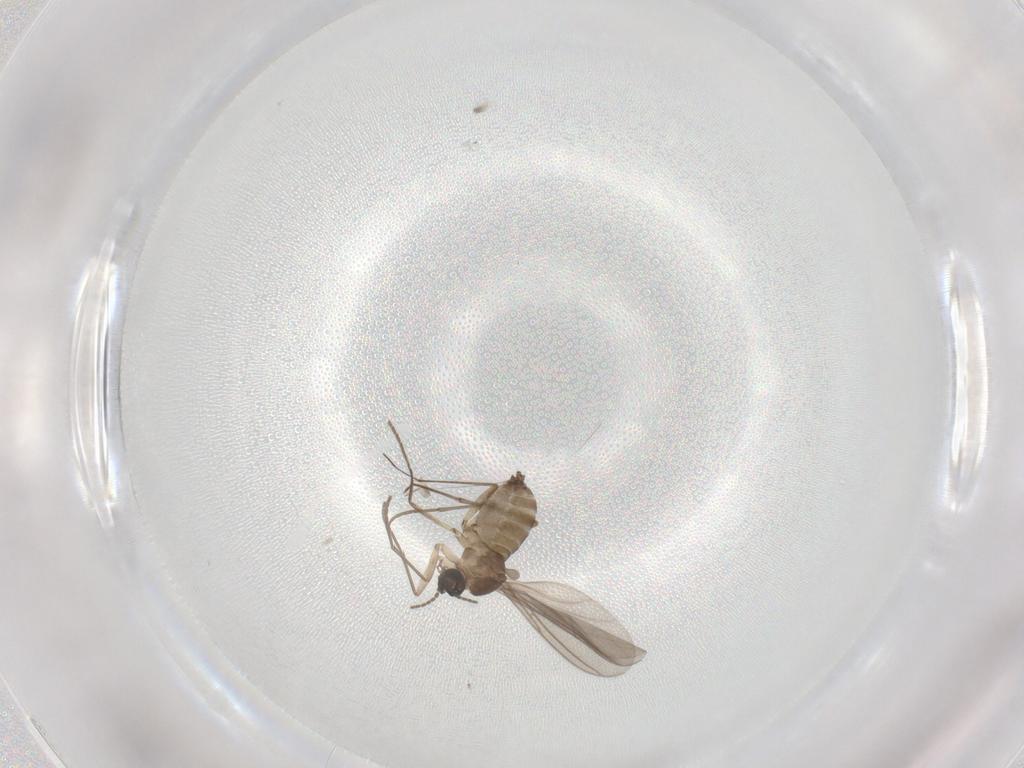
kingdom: Animalia
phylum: Arthropoda
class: Insecta
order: Diptera
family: Sciaridae
